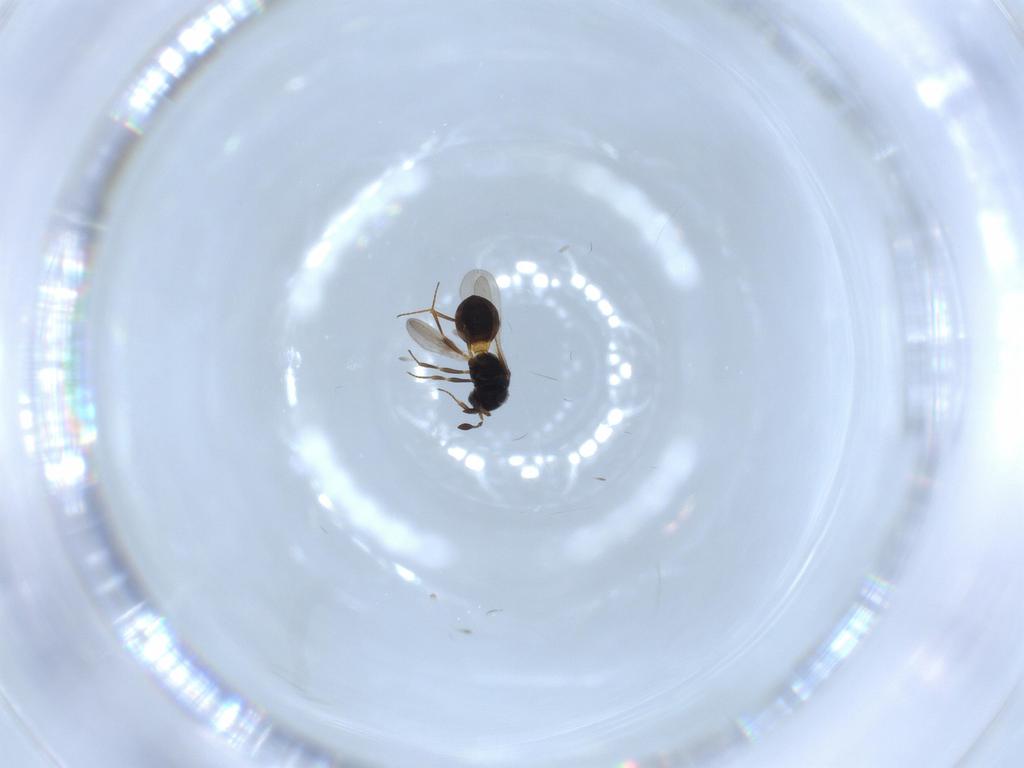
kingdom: Animalia
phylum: Arthropoda
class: Insecta
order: Hymenoptera
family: Scelionidae
